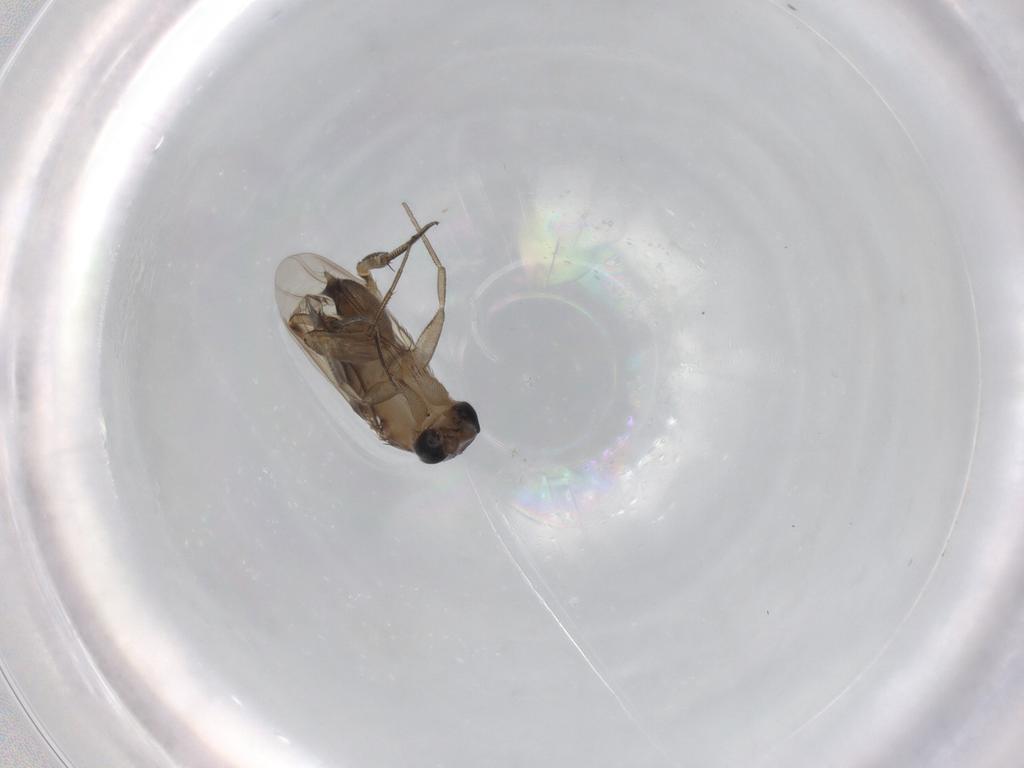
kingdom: Animalia
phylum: Arthropoda
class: Insecta
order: Diptera
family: Phoridae
